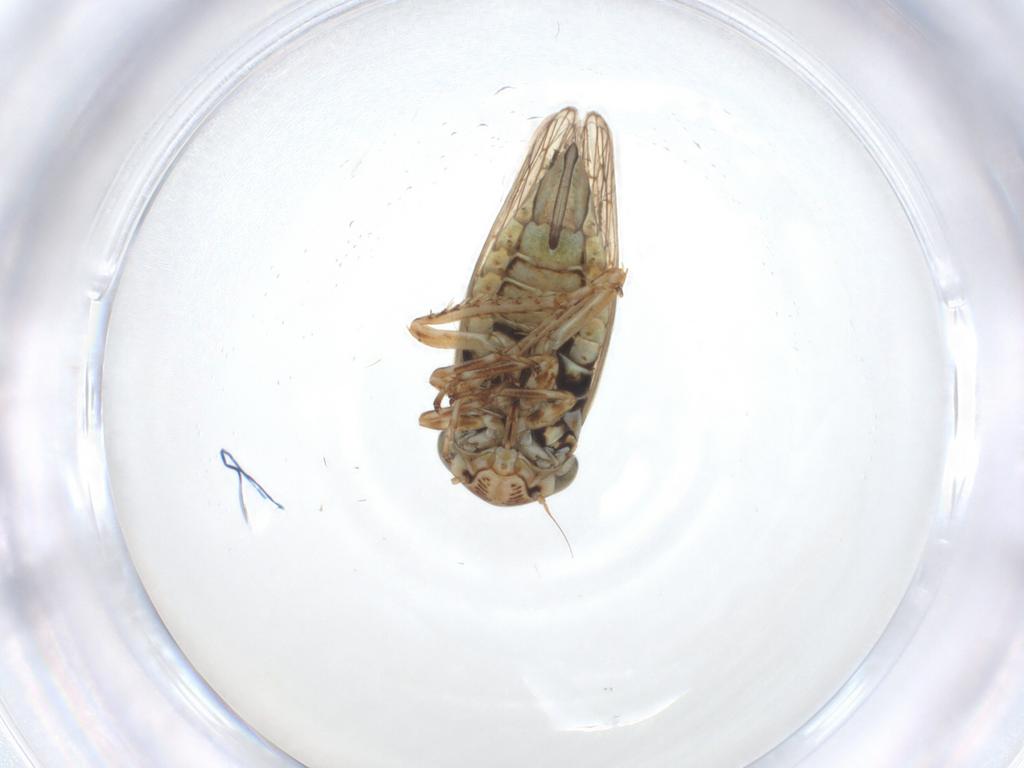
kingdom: Animalia
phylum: Arthropoda
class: Insecta
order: Hemiptera
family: Cicadellidae
